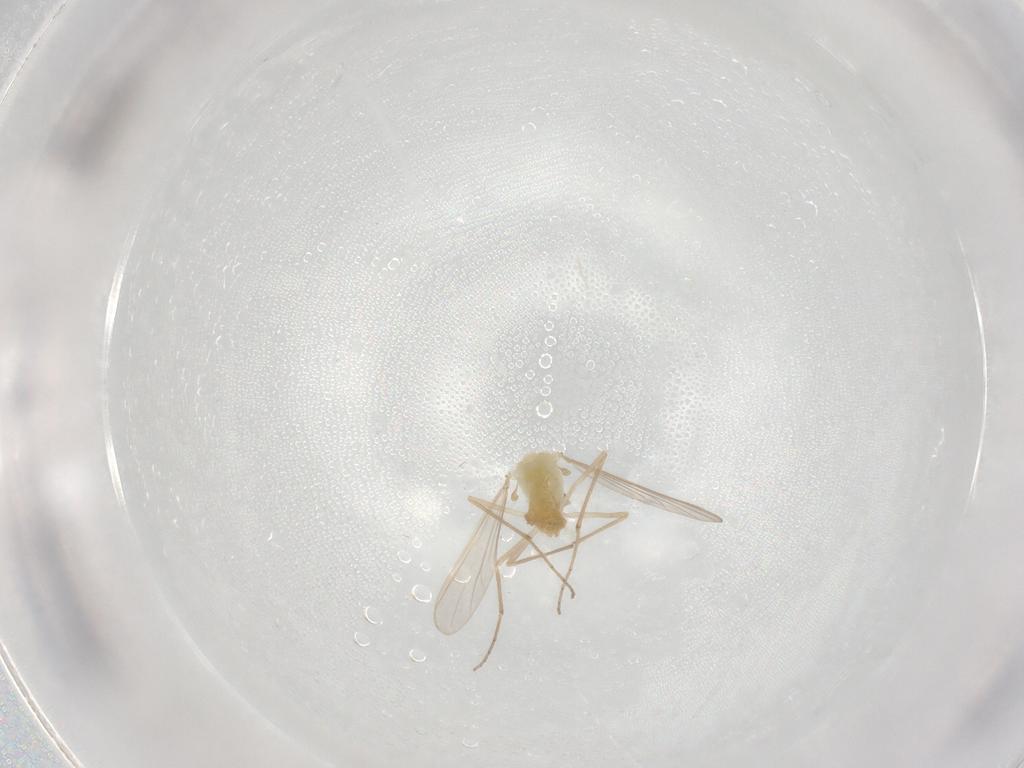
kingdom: Animalia
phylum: Arthropoda
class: Insecta
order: Diptera
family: Chironomidae
